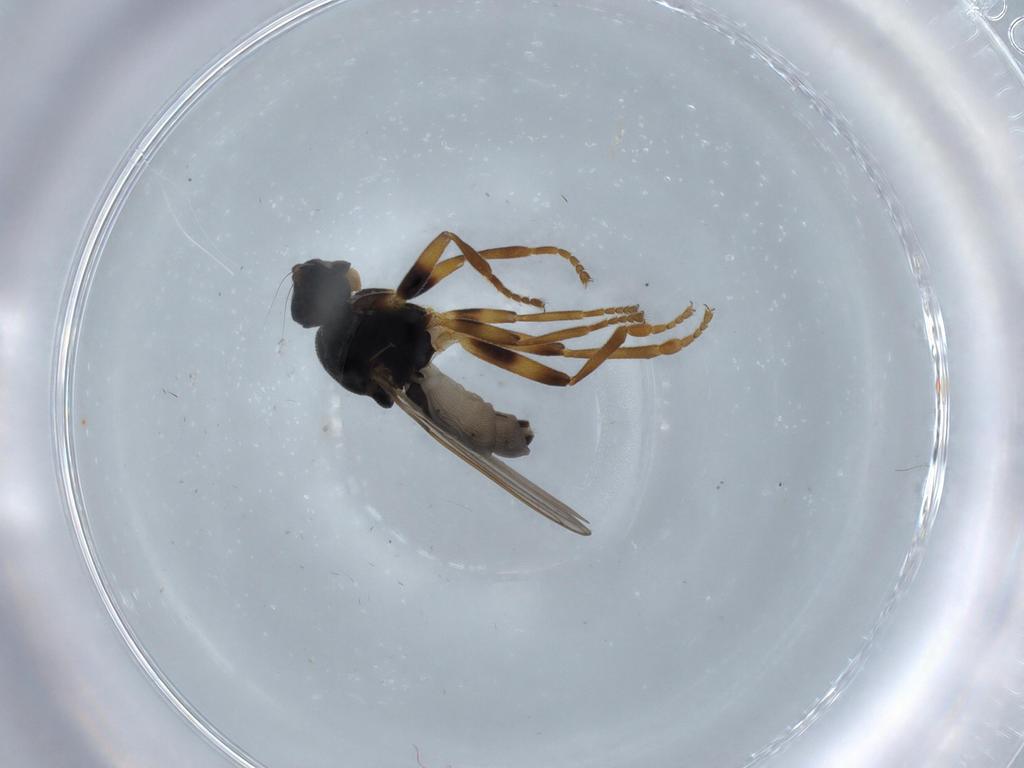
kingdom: Animalia
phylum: Arthropoda
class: Insecta
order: Diptera
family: Sphaeroceridae
